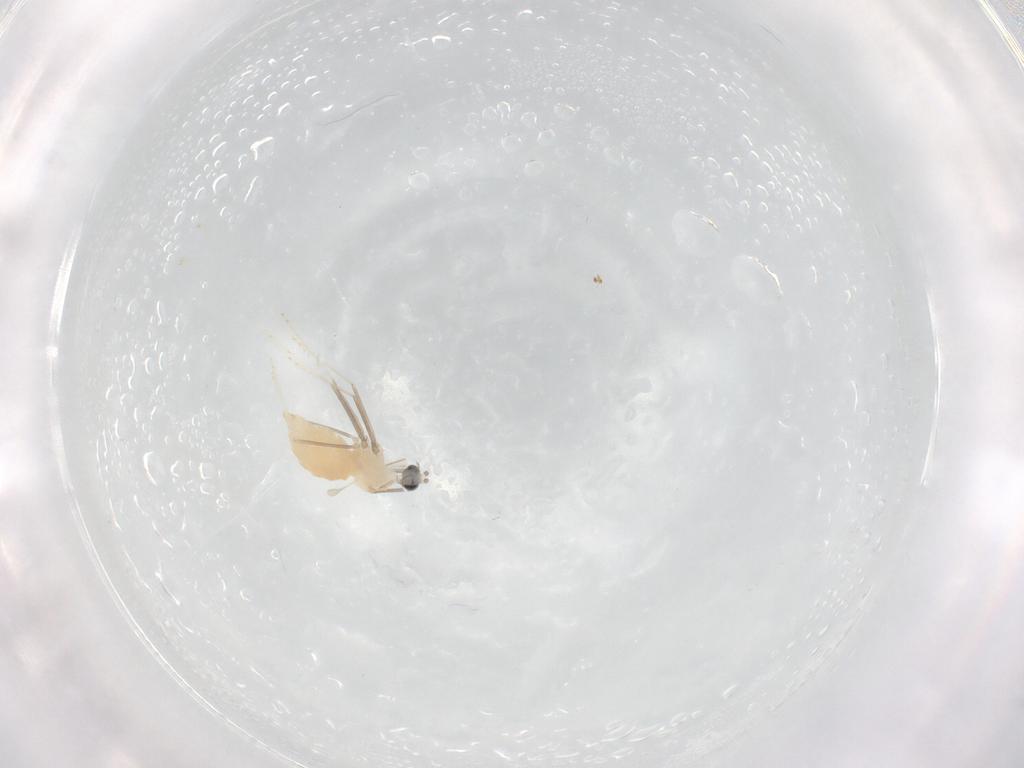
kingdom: Animalia
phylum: Arthropoda
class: Insecta
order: Diptera
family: Cecidomyiidae
